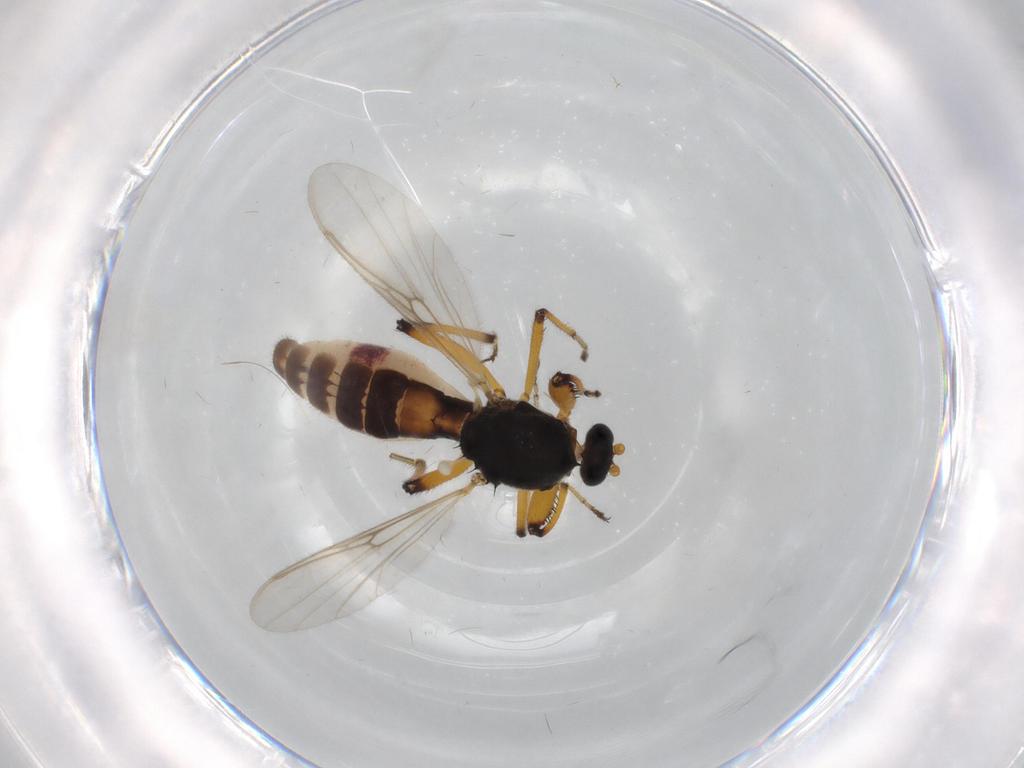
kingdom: Animalia
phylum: Arthropoda
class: Insecta
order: Diptera
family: Ceratopogonidae
